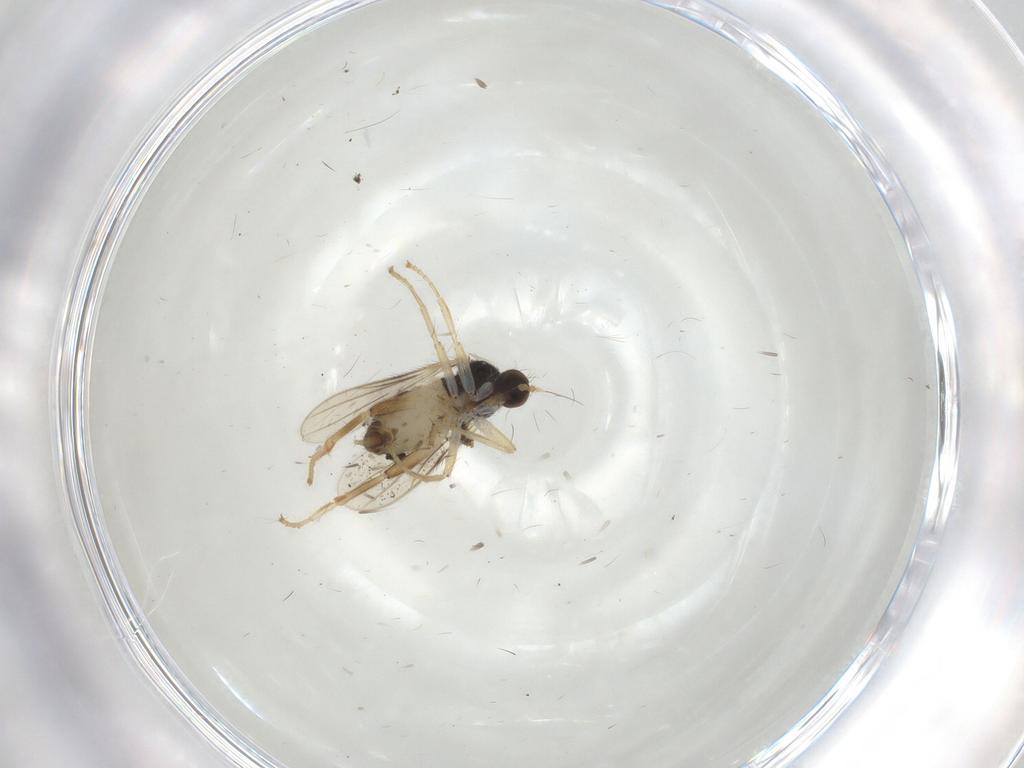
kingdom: Animalia
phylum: Arthropoda
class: Insecta
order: Diptera
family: Hybotidae
